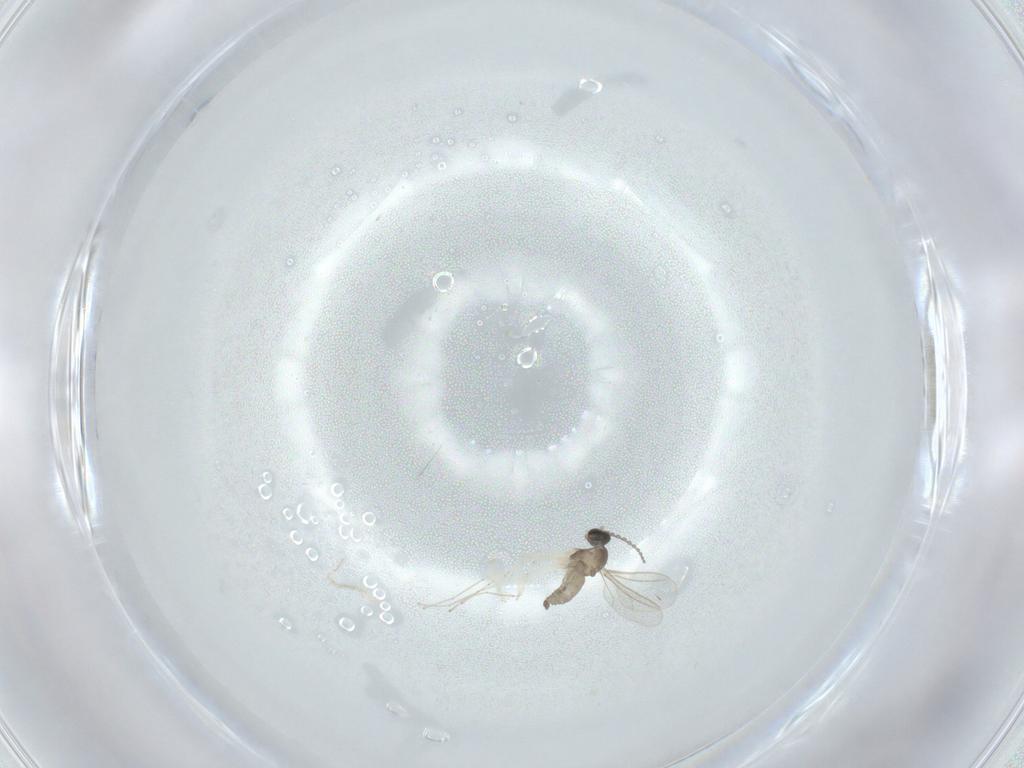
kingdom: Animalia
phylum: Arthropoda
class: Insecta
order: Diptera
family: Cecidomyiidae
